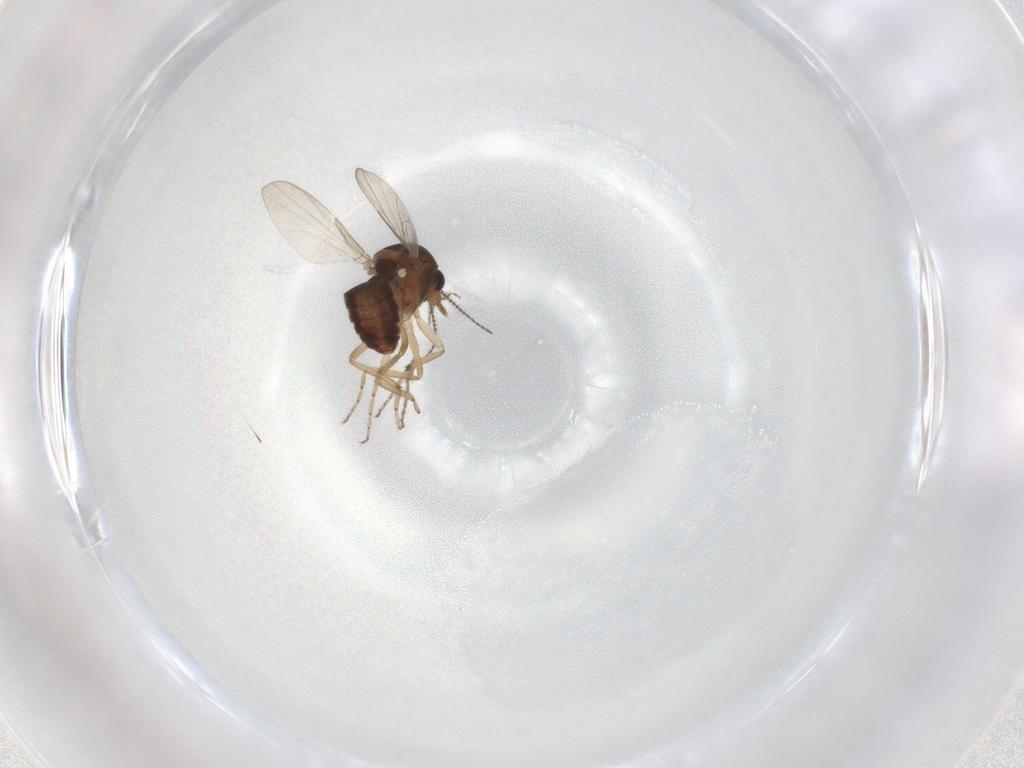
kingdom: Animalia
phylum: Arthropoda
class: Insecta
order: Diptera
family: Ceratopogonidae
